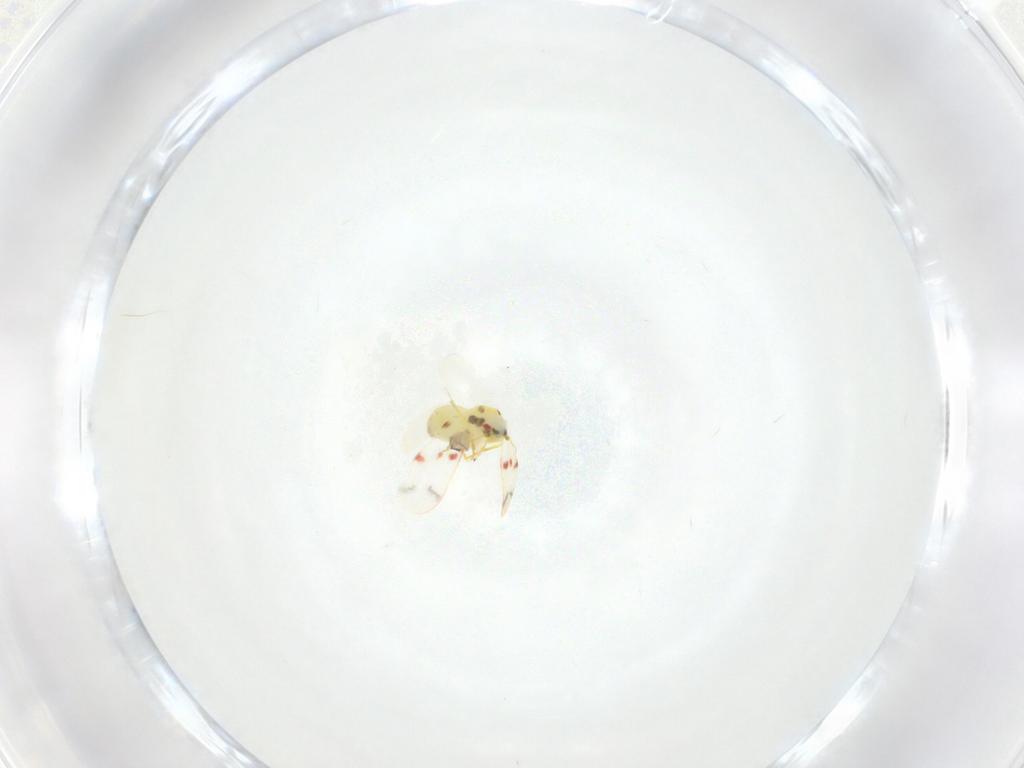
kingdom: Animalia
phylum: Arthropoda
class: Insecta
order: Hemiptera
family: Aleyrodidae
